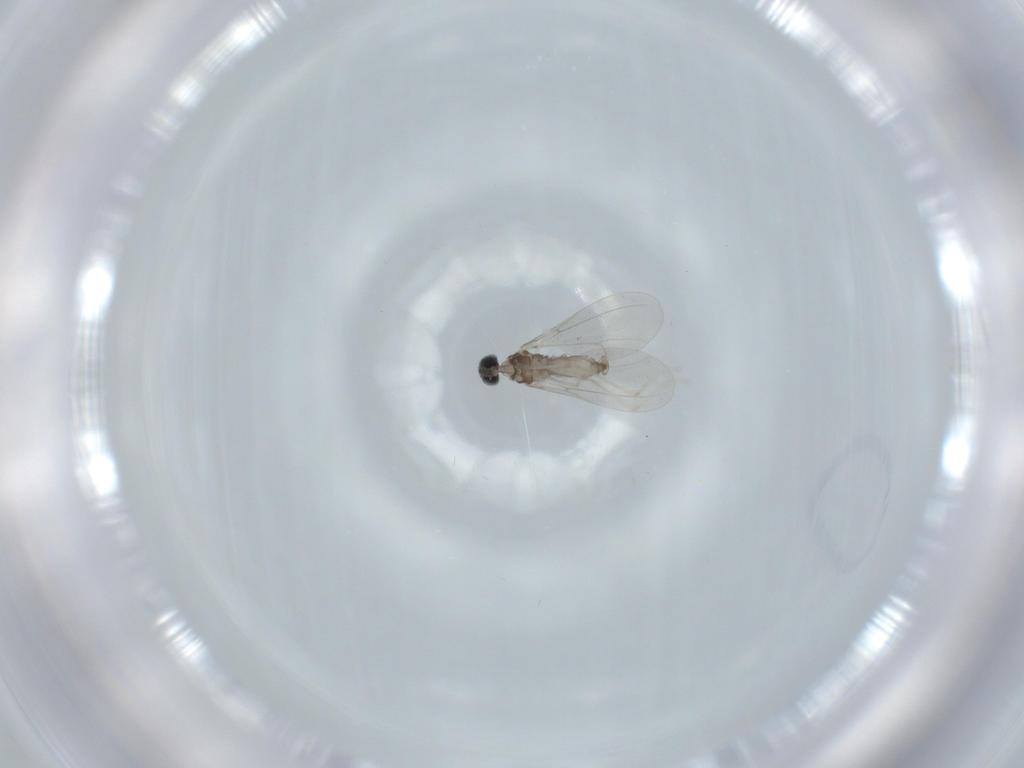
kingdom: Animalia
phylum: Arthropoda
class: Insecta
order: Diptera
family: Cecidomyiidae
